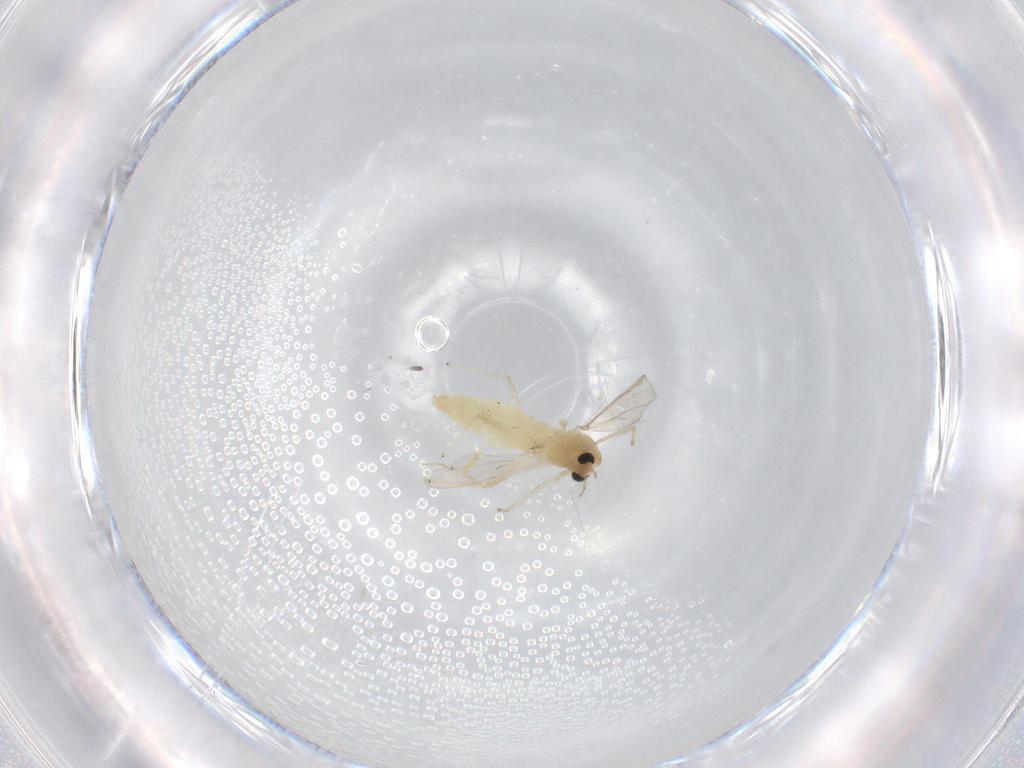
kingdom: Animalia
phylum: Arthropoda
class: Insecta
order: Diptera
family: Chironomidae
